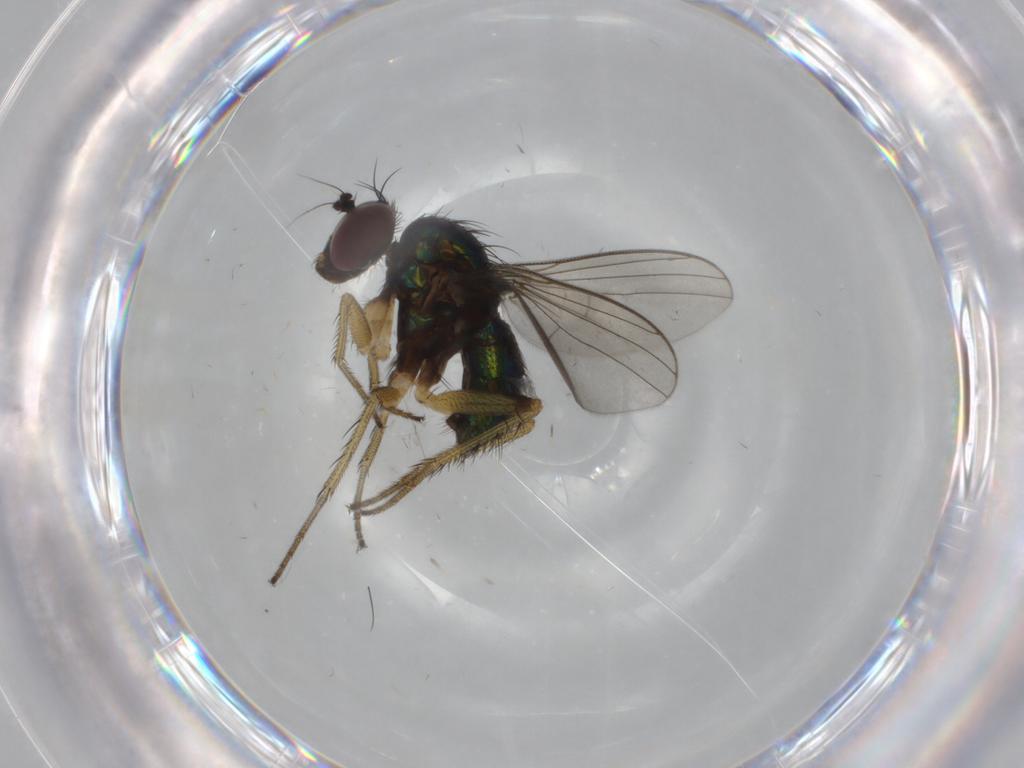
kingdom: Animalia
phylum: Arthropoda
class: Insecta
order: Diptera
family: Dolichopodidae
